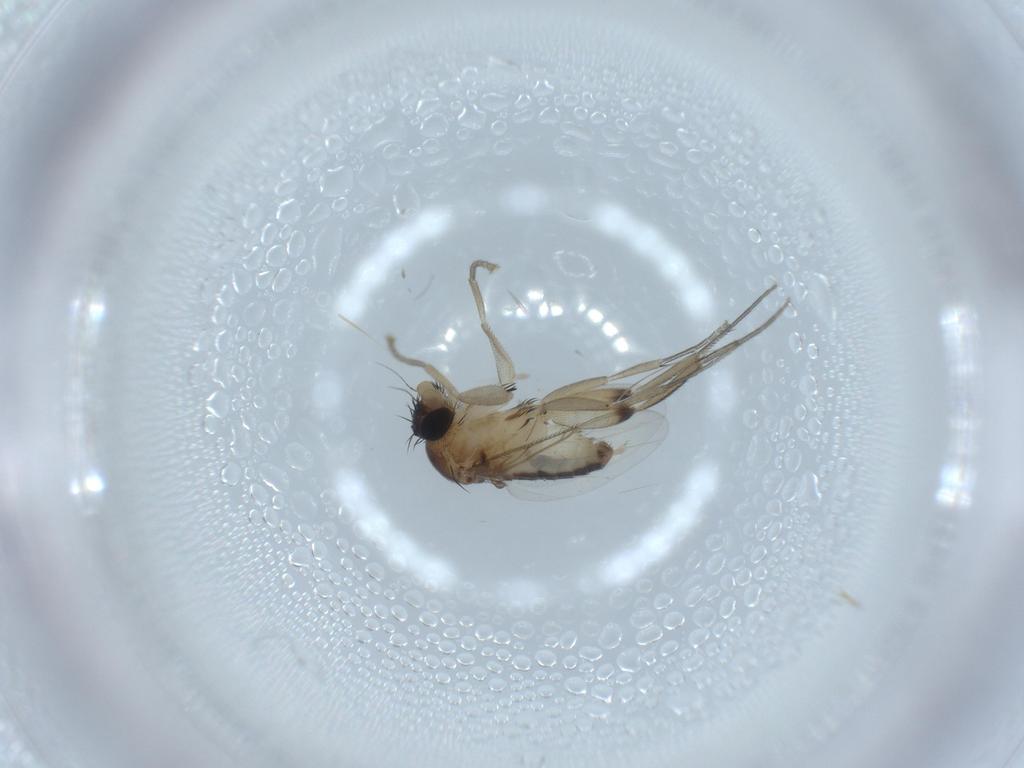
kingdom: Animalia
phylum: Arthropoda
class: Insecta
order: Diptera
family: Phoridae
